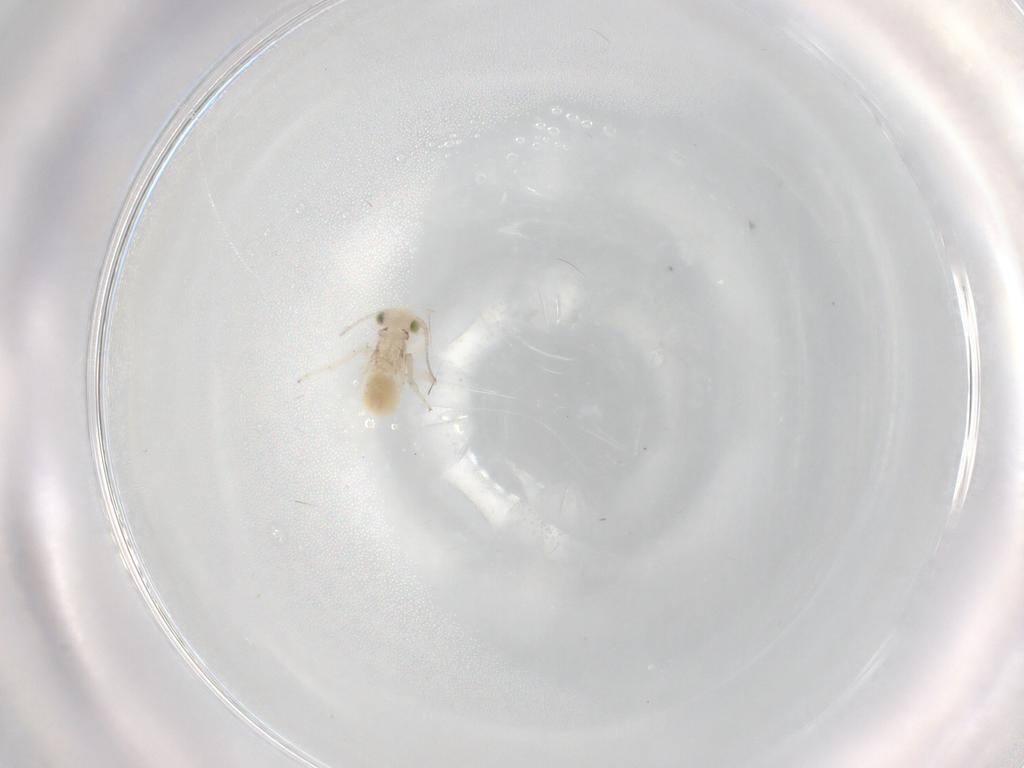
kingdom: Animalia
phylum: Arthropoda
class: Insecta
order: Psocodea
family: Lepidopsocidae
